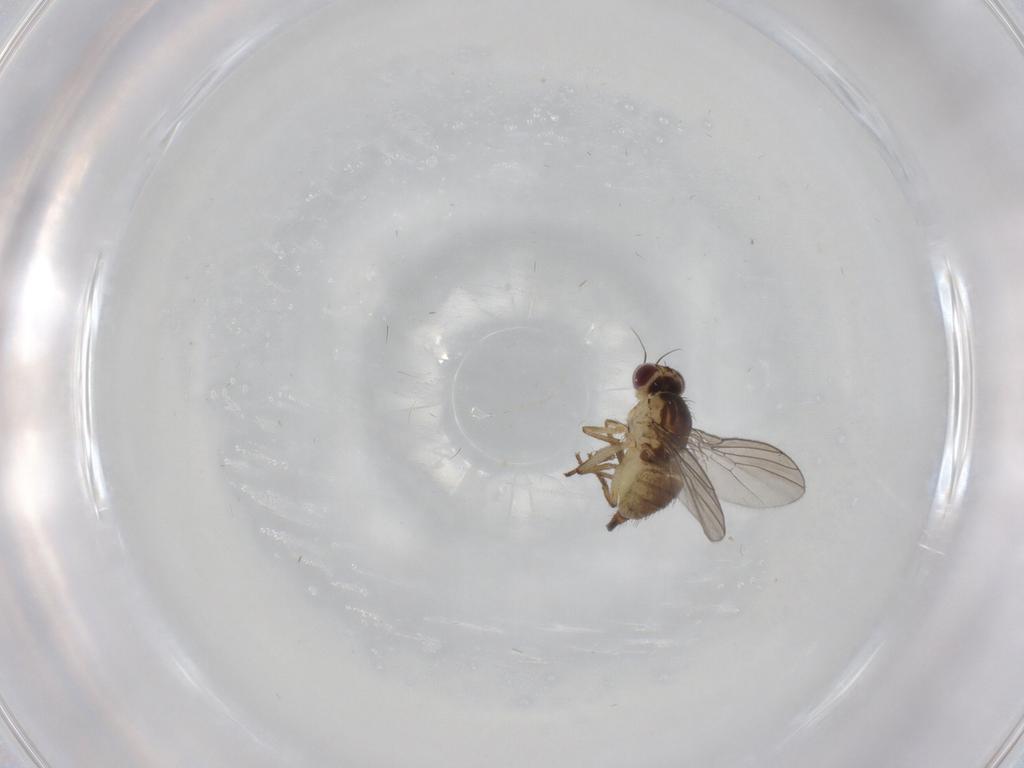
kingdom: Animalia
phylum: Arthropoda
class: Insecta
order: Diptera
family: Agromyzidae
